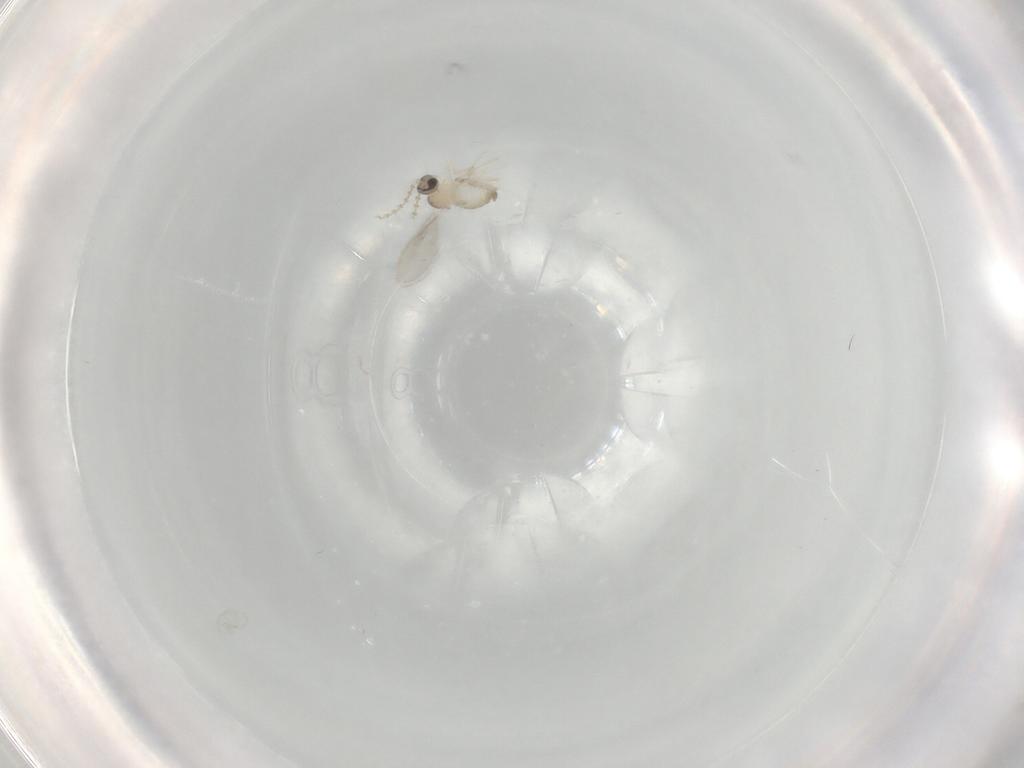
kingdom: Animalia
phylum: Arthropoda
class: Insecta
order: Diptera
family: Cecidomyiidae
